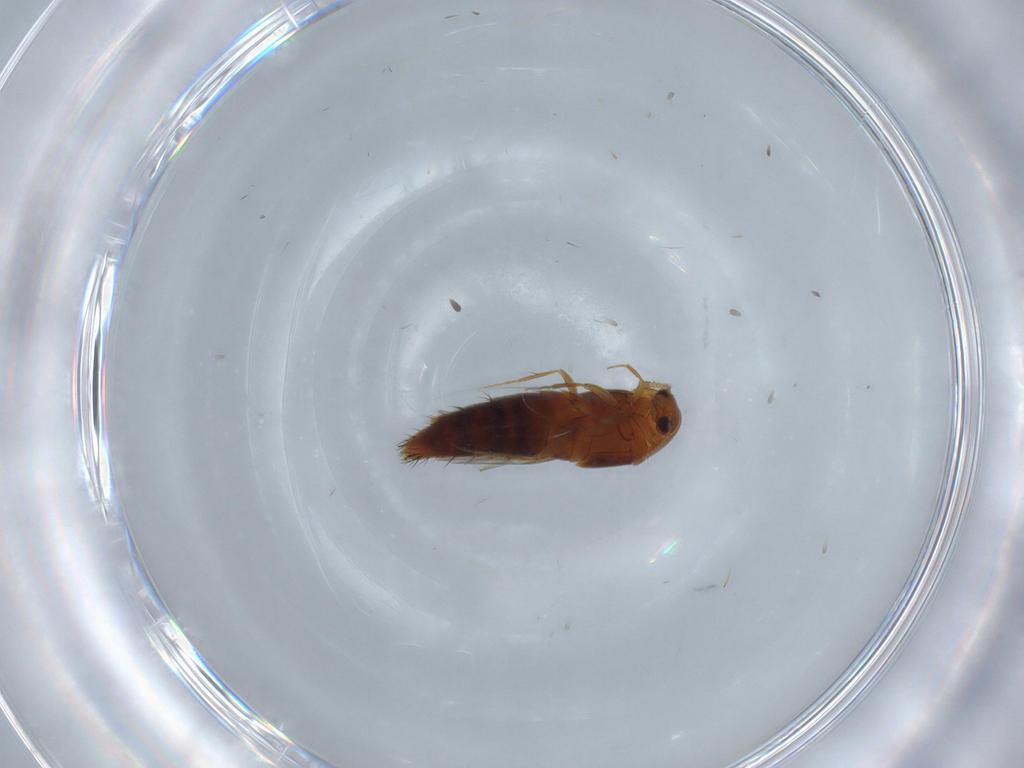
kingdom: Animalia
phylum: Arthropoda
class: Insecta
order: Coleoptera
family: Staphylinidae
